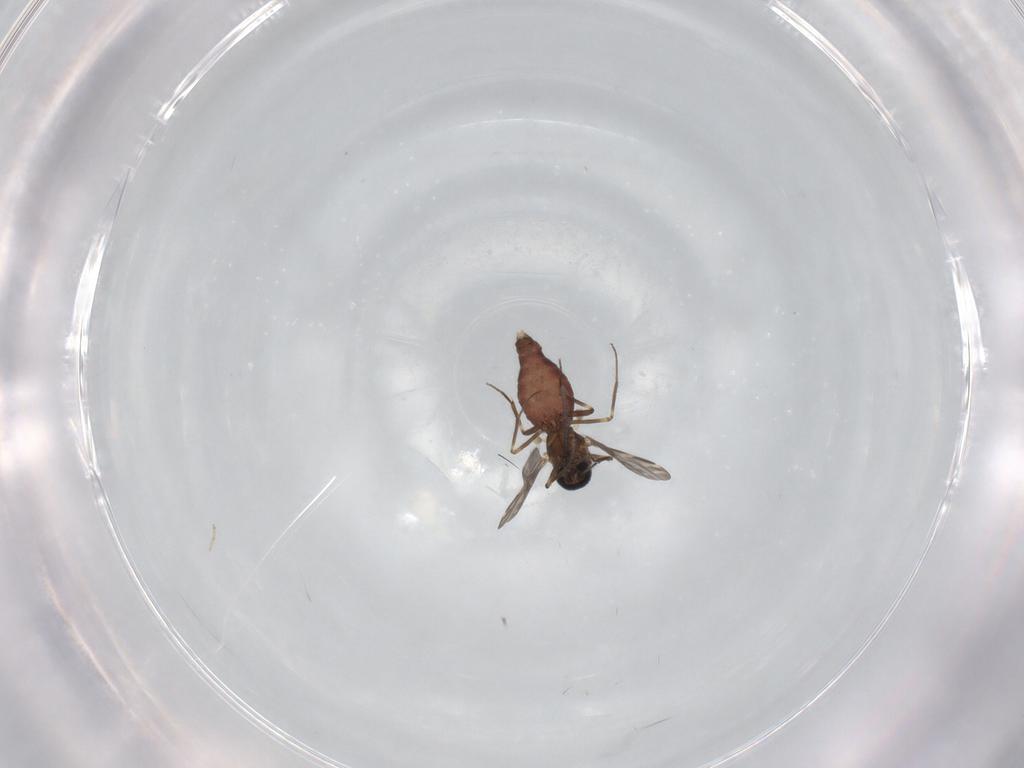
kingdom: Animalia
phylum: Arthropoda
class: Insecta
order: Diptera
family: Sciaridae
